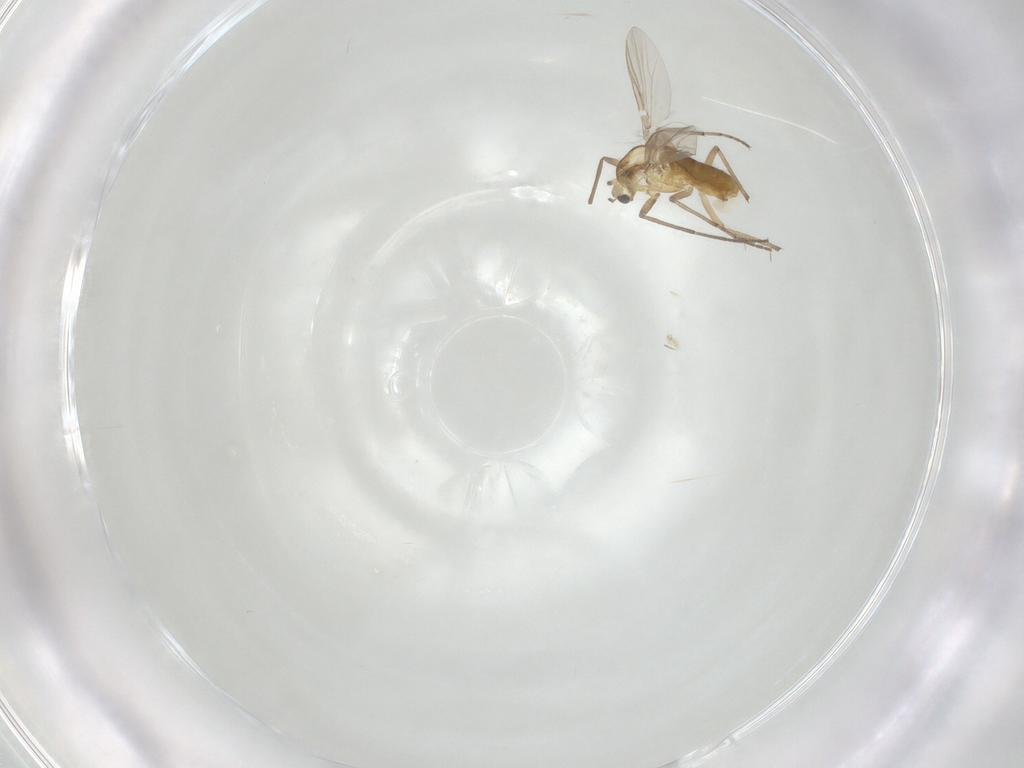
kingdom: Animalia
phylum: Arthropoda
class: Insecta
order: Diptera
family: Chironomidae
